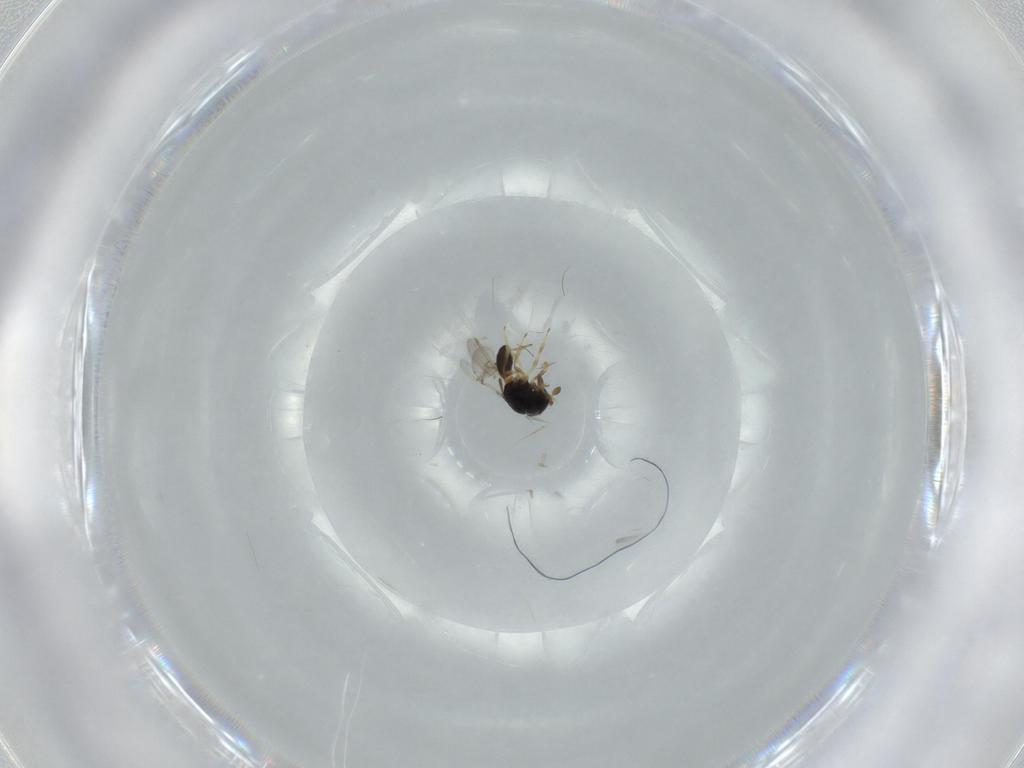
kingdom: Animalia
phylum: Arthropoda
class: Insecta
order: Hymenoptera
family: Scelionidae
